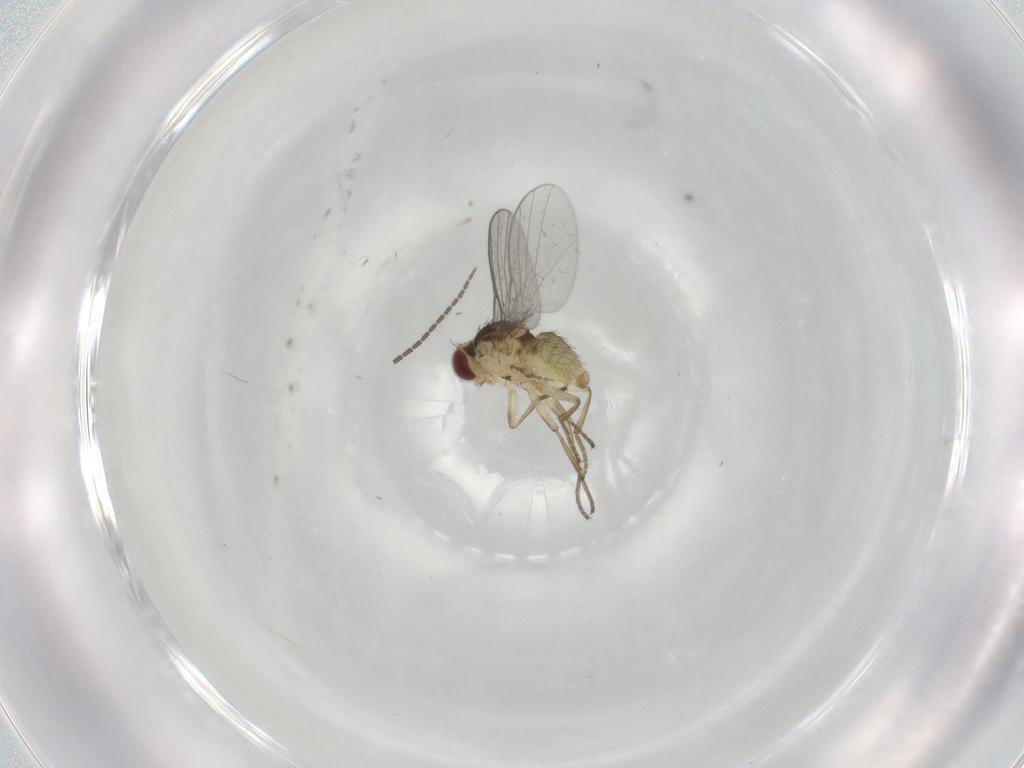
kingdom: Animalia
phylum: Arthropoda
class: Insecta
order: Diptera
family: Agromyzidae
